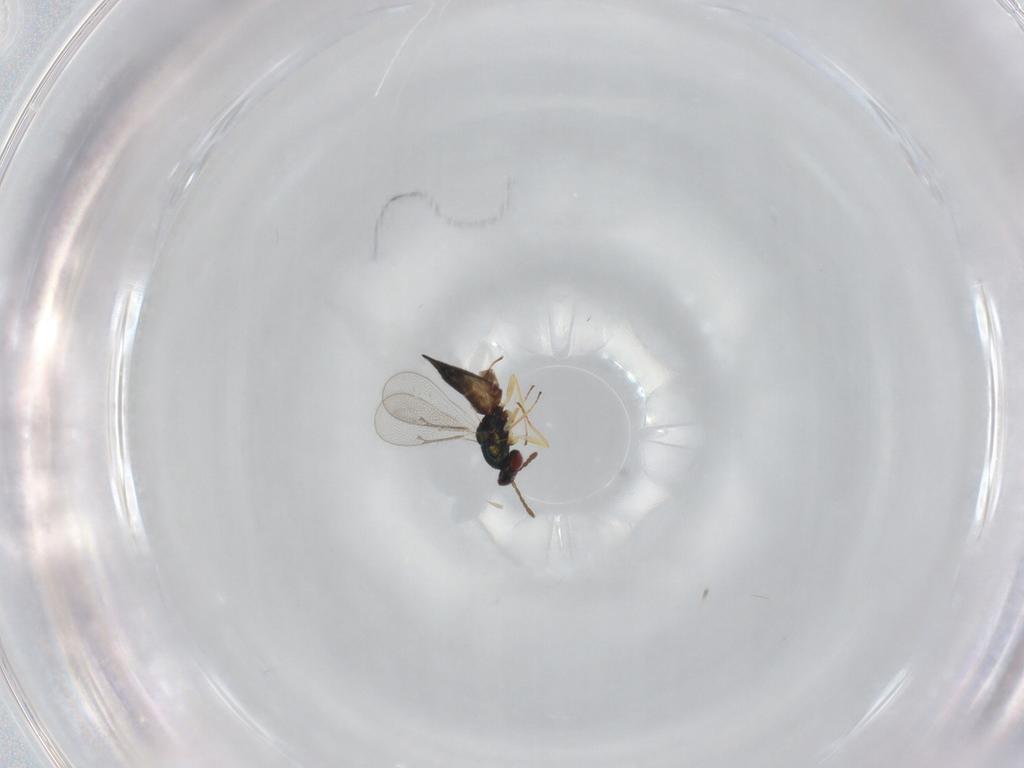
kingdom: Animalia
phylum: Arthropoda
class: Insecta
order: Hymenoptera
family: Eulophidae
